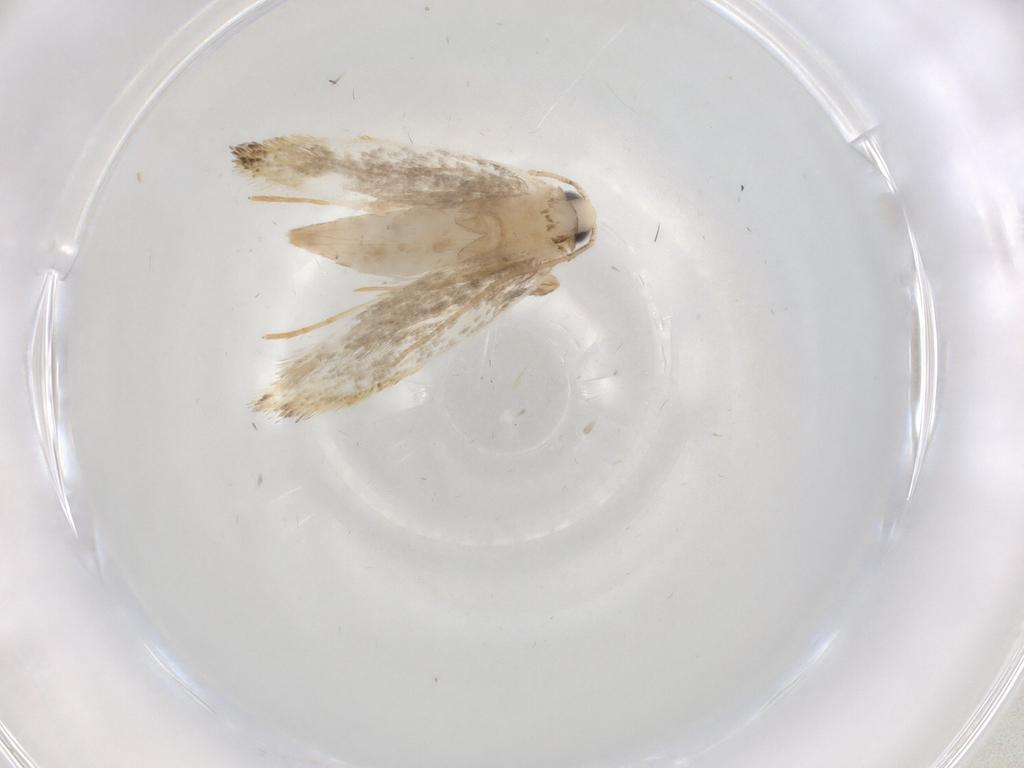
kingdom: Animalia
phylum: Arthropoda
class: Insecta
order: Lepidoptera
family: Tineidae
